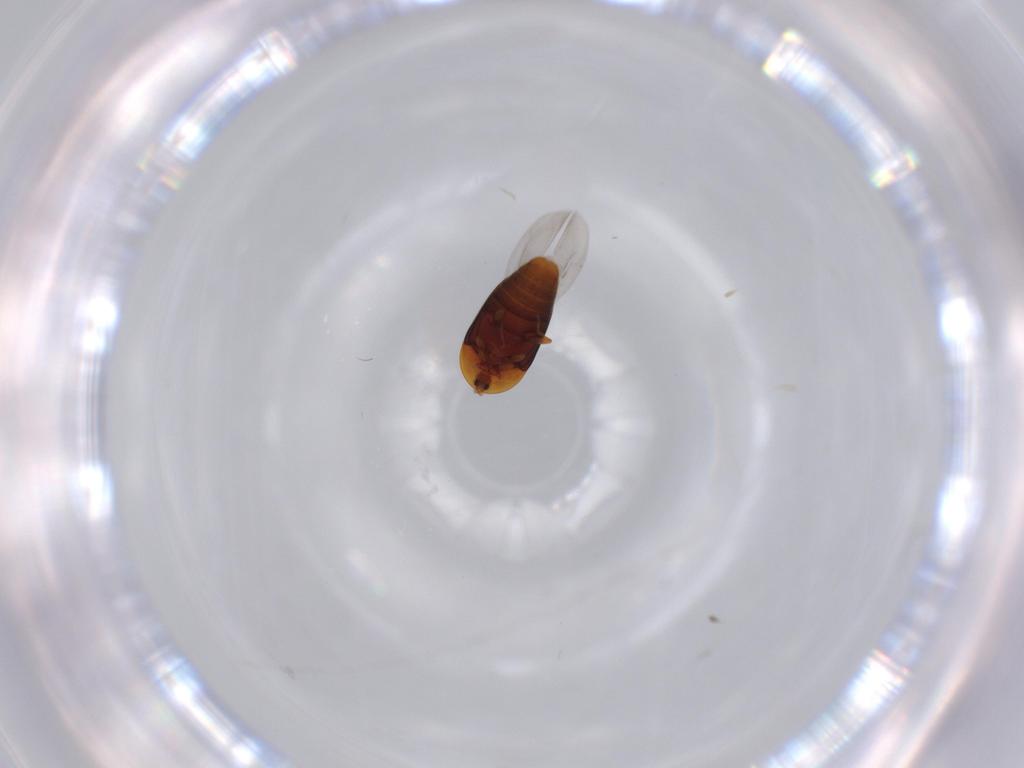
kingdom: Animalia
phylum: Arthropoda
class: Insecta
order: Coleoptera
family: Corylophidae
